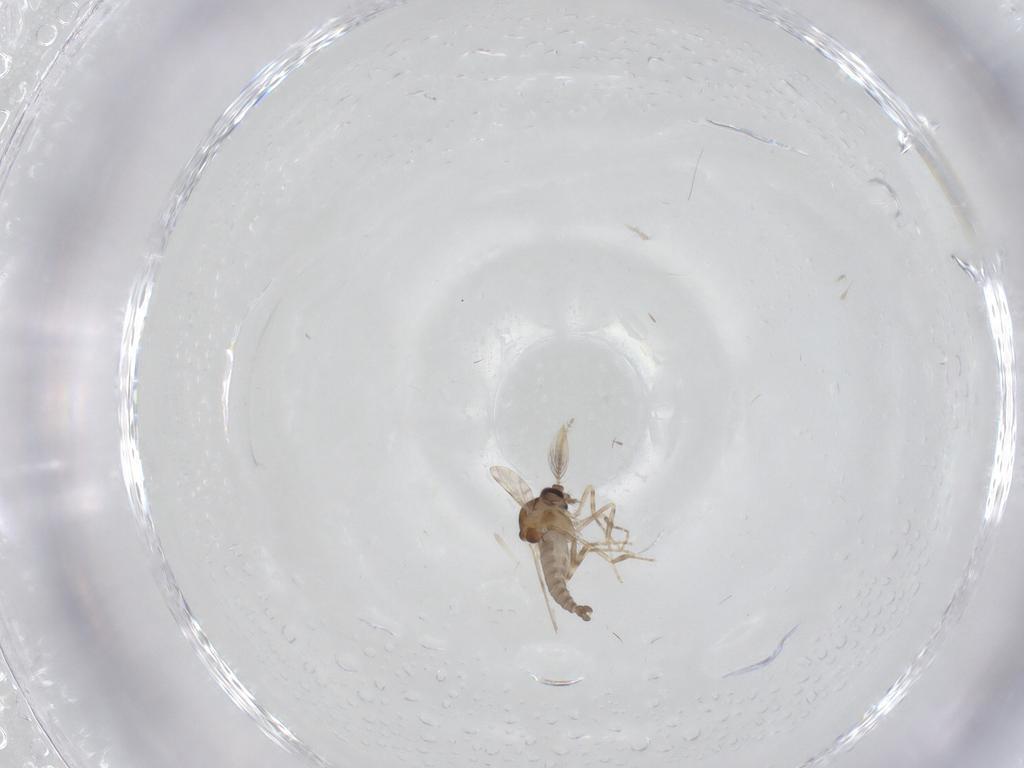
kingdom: Animalia
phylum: Arthropoda
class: Insecta
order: Diptera
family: Ceratopogonidae
